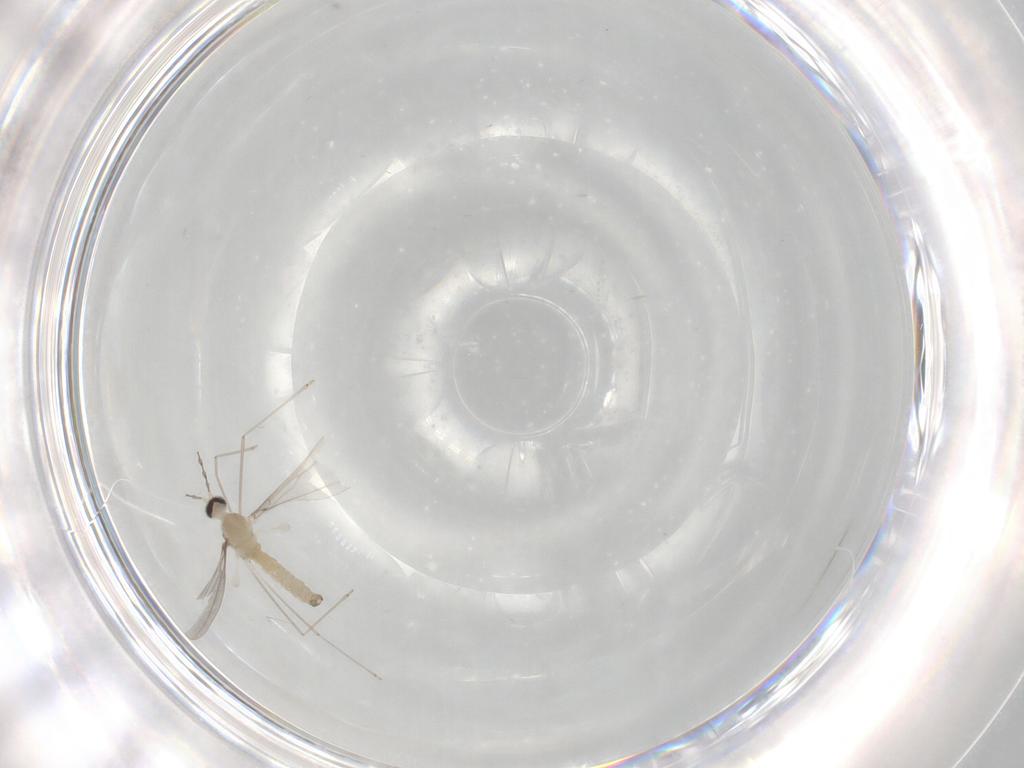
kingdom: Animalia
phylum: Arthropoda
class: Insecta
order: Diptera
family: Cecidomyiidae
